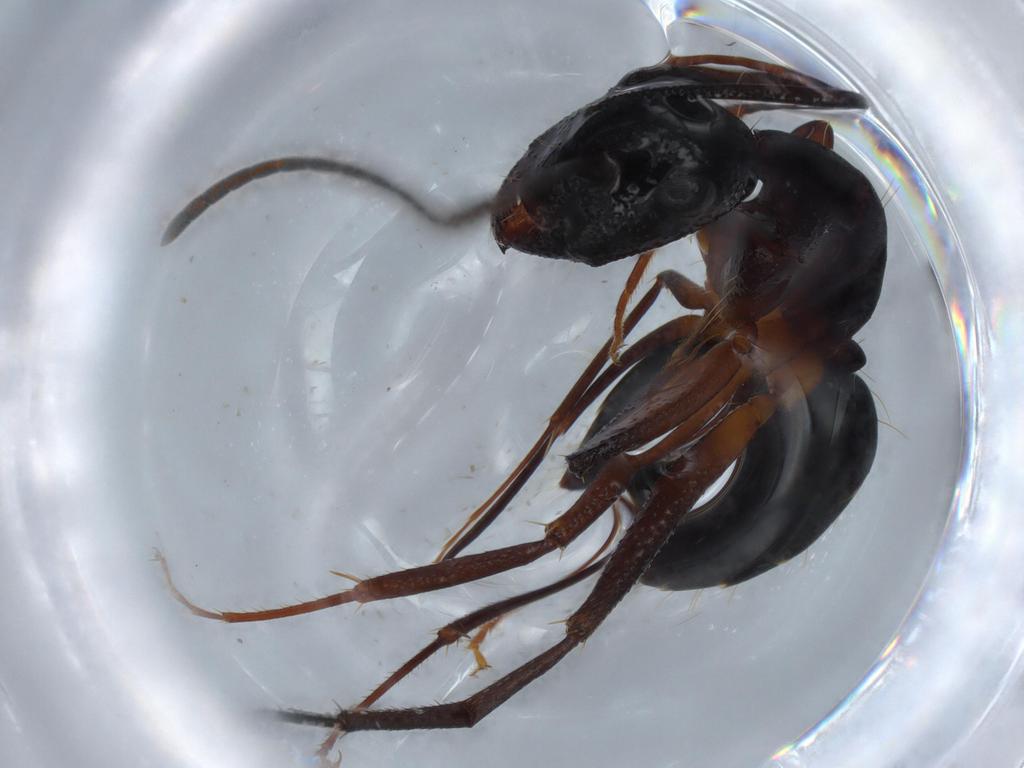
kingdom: Animalia
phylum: Arthropoda
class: Insecta
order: Hymenoptera
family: Formicidae
